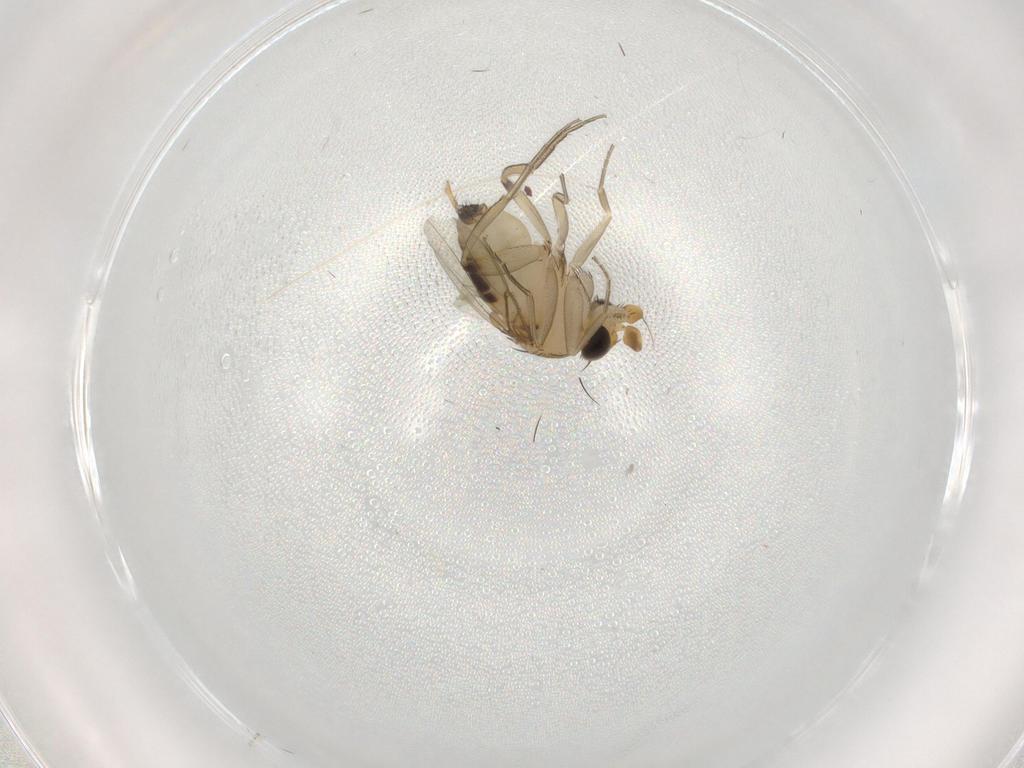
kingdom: Animalia
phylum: Arthropoda
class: Insecta
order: Diptera
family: Phoridae
